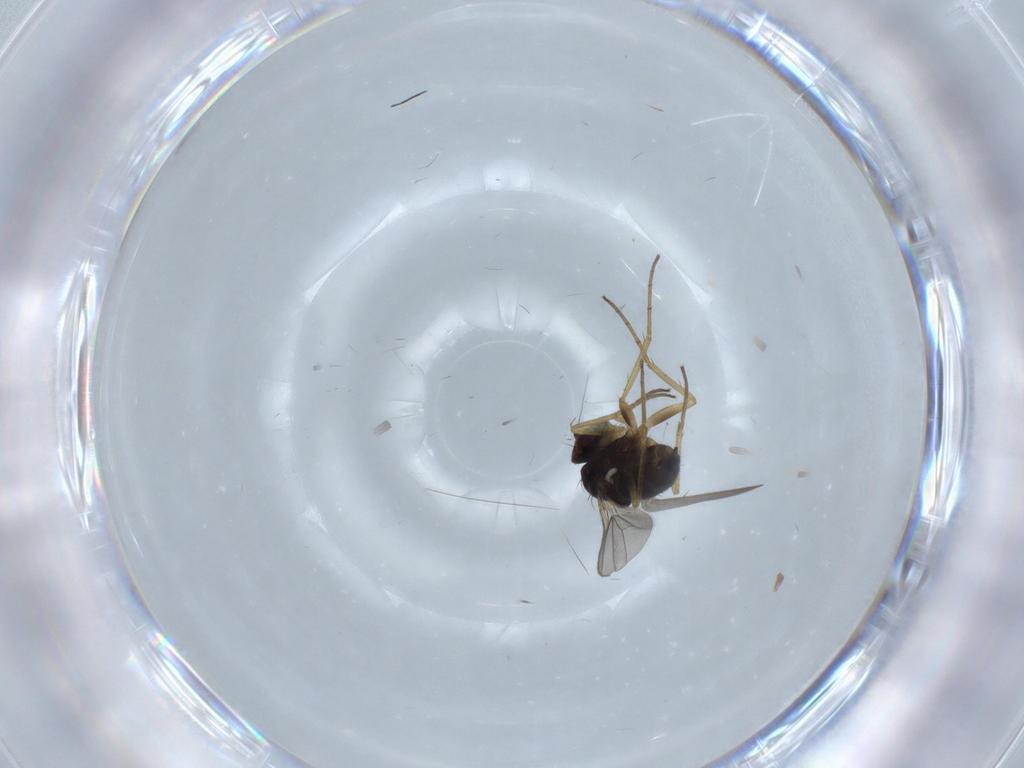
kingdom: Animalia
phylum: Arthropoda
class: Insecta
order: Diptera
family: Dolichopodidae
